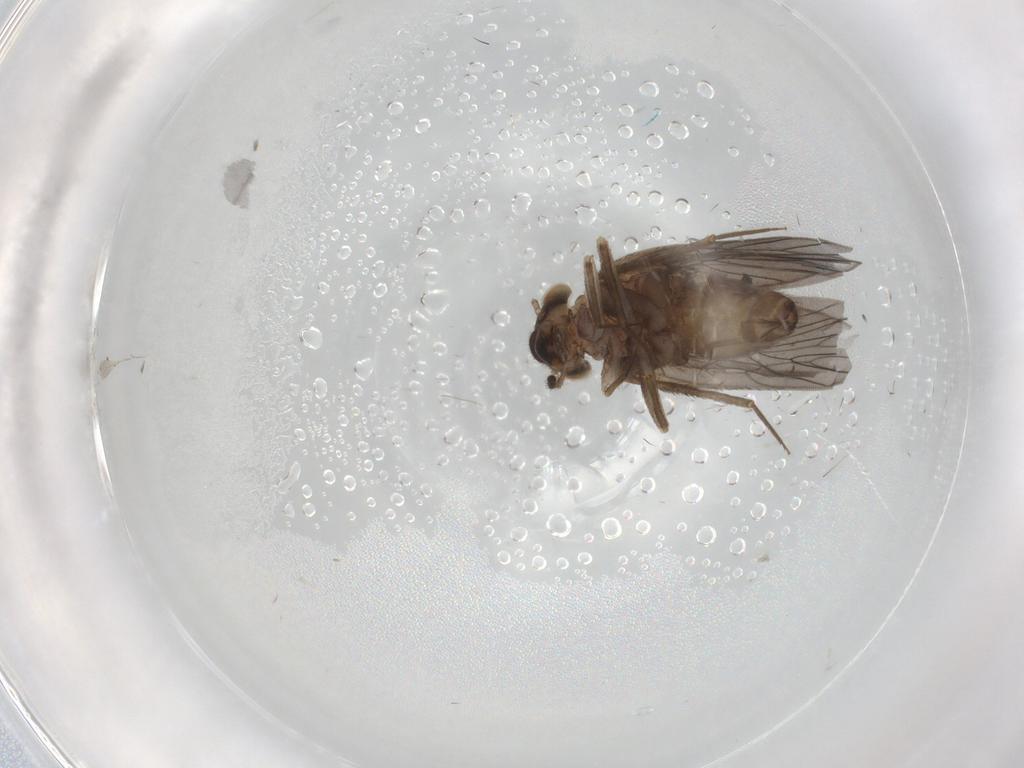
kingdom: Animalia
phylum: Arthropoda
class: Insecta
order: Psocodea
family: Lepidopsocidae
